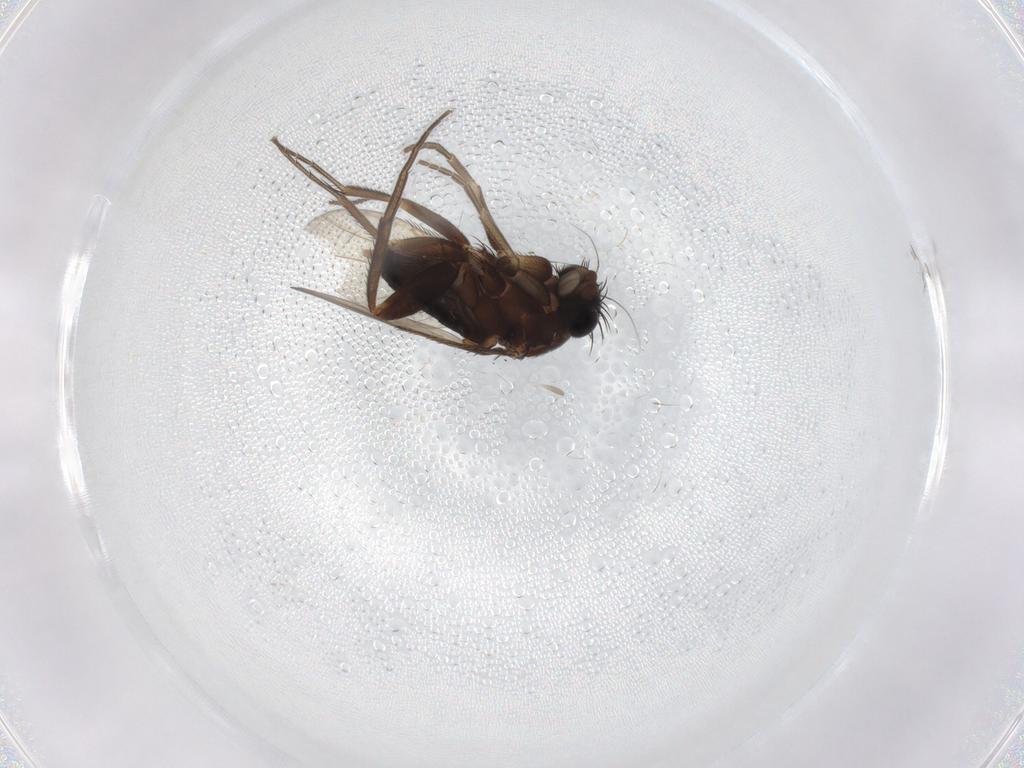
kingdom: Animalia
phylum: Arthropoda
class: Insecta
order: Diptera
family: Phoridae
